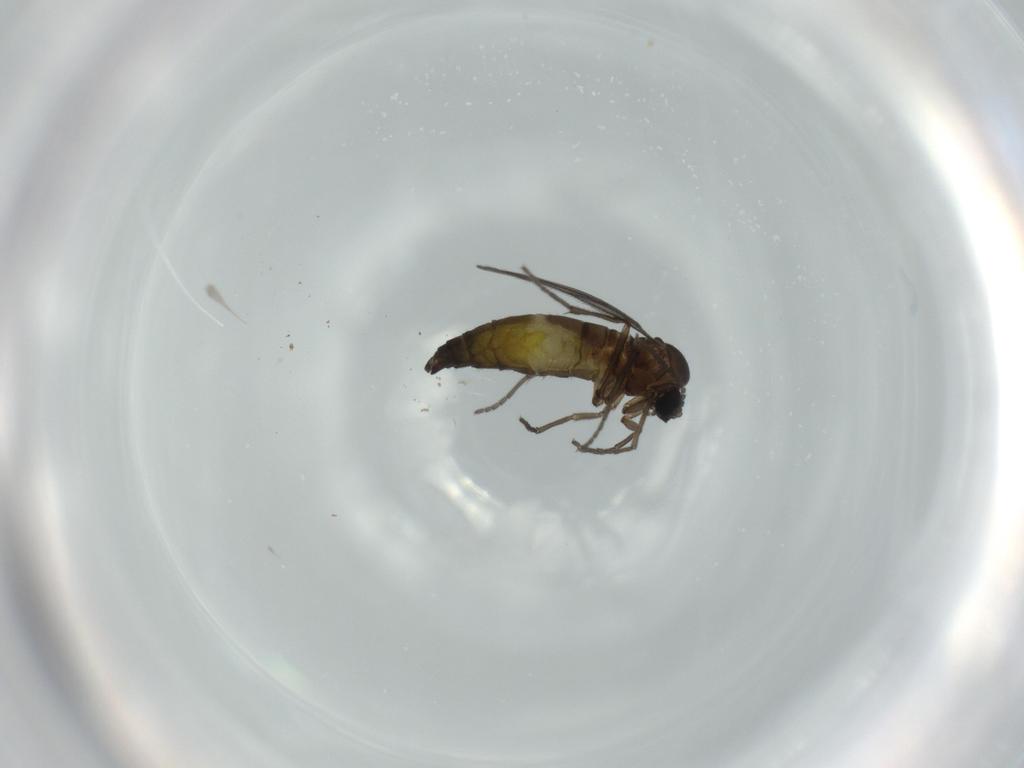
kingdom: Animalia
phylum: Arthropoda
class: Insecta
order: Diptera
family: Sciaridae
